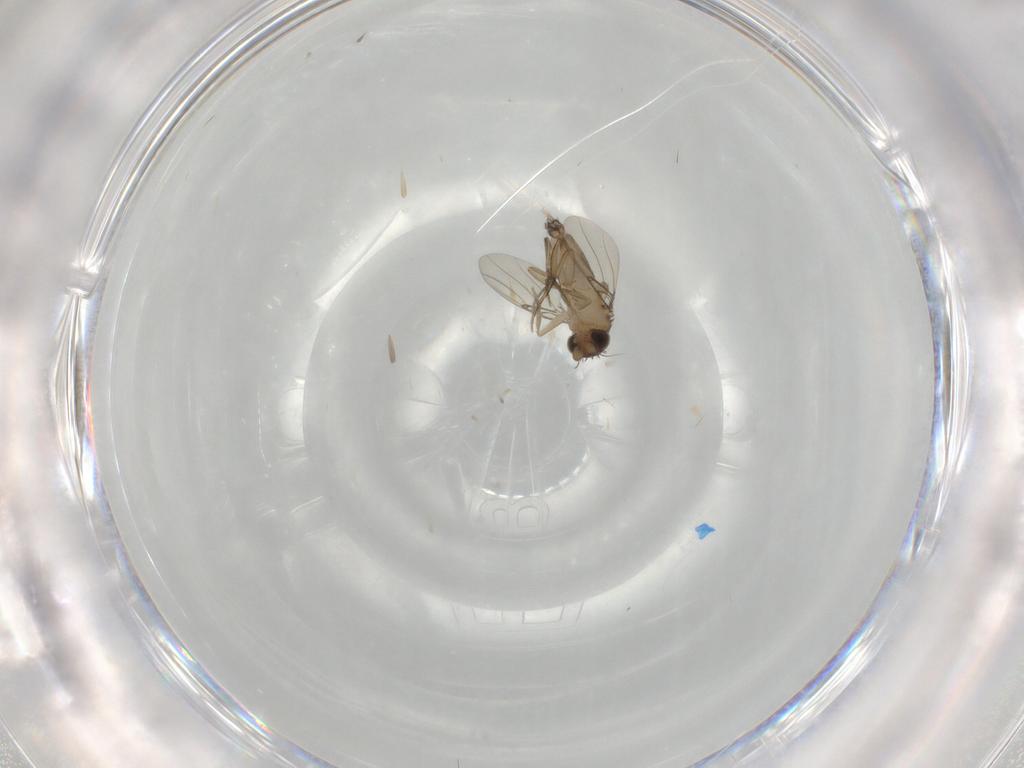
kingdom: Animalia
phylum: Arthropoda
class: Insecta
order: Diptera
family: Phoridae
